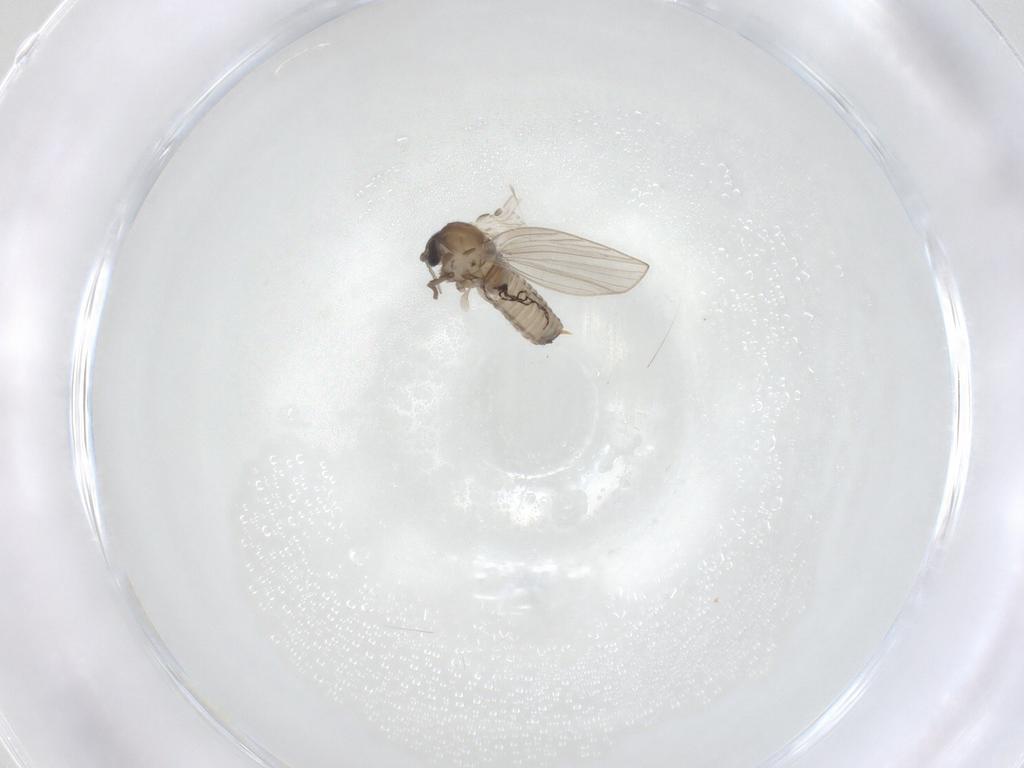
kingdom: Animalia
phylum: Arthropoda
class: Insecta
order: Diptera
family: Psychodidae
